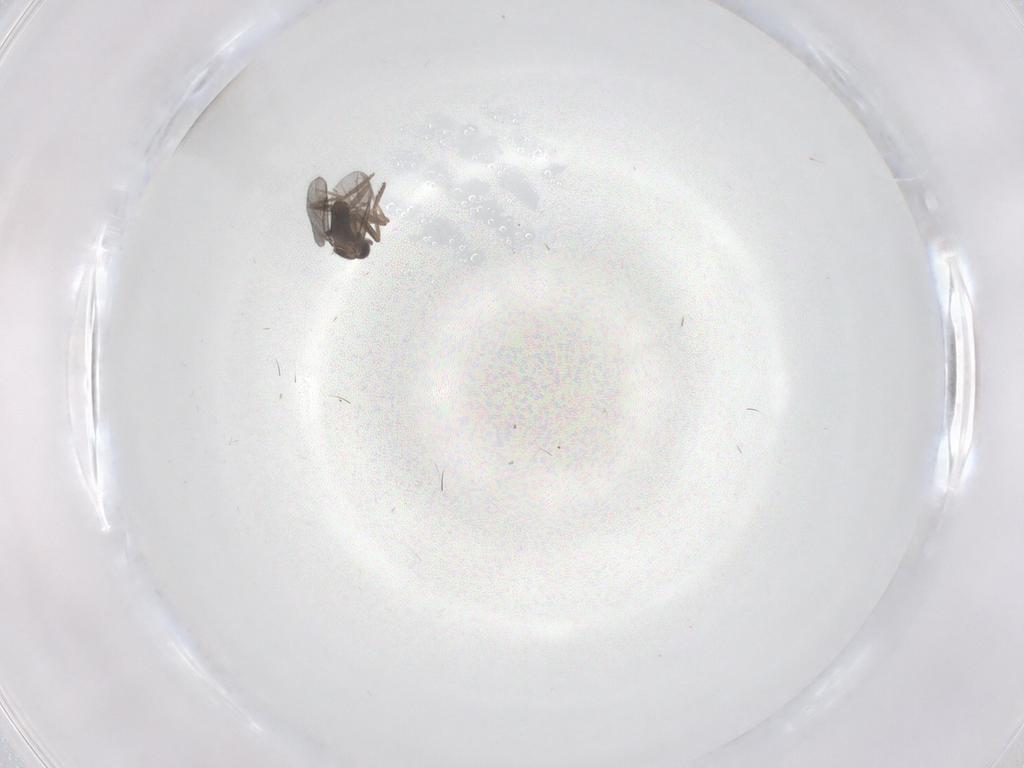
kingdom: Animalia
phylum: Arthropoda
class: Insecta
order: Diptera
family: Cecidomyiidae
